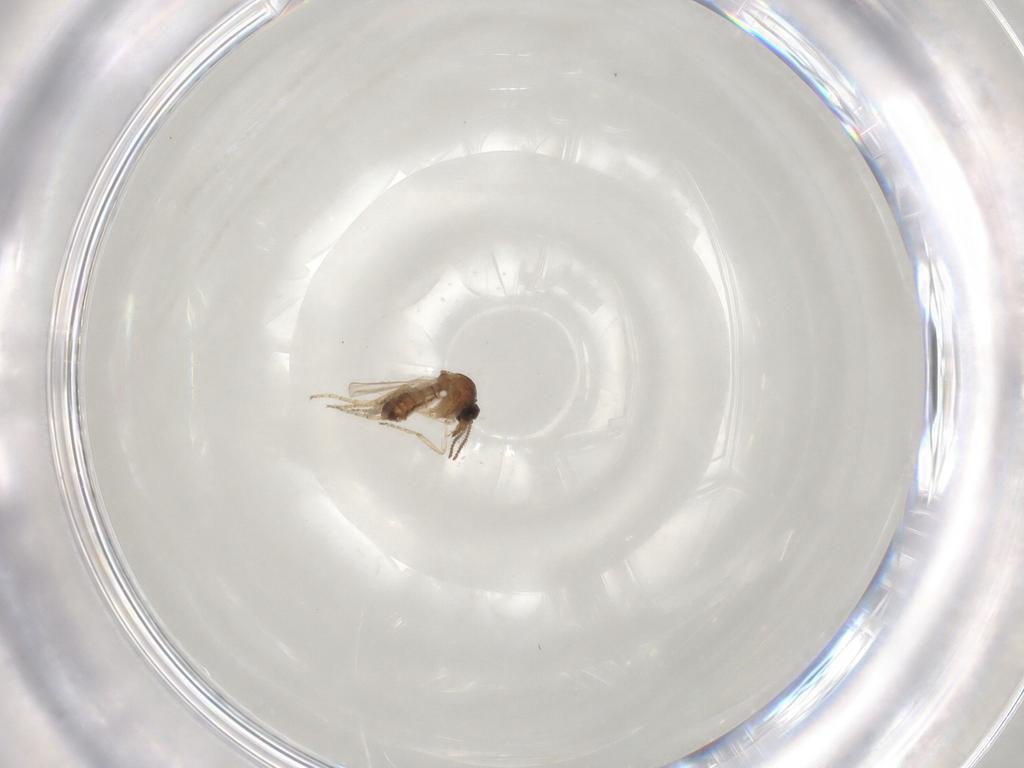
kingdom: Animalia
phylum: Arthropoda
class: Insecta
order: Diptera
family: Ceratopogonidae
